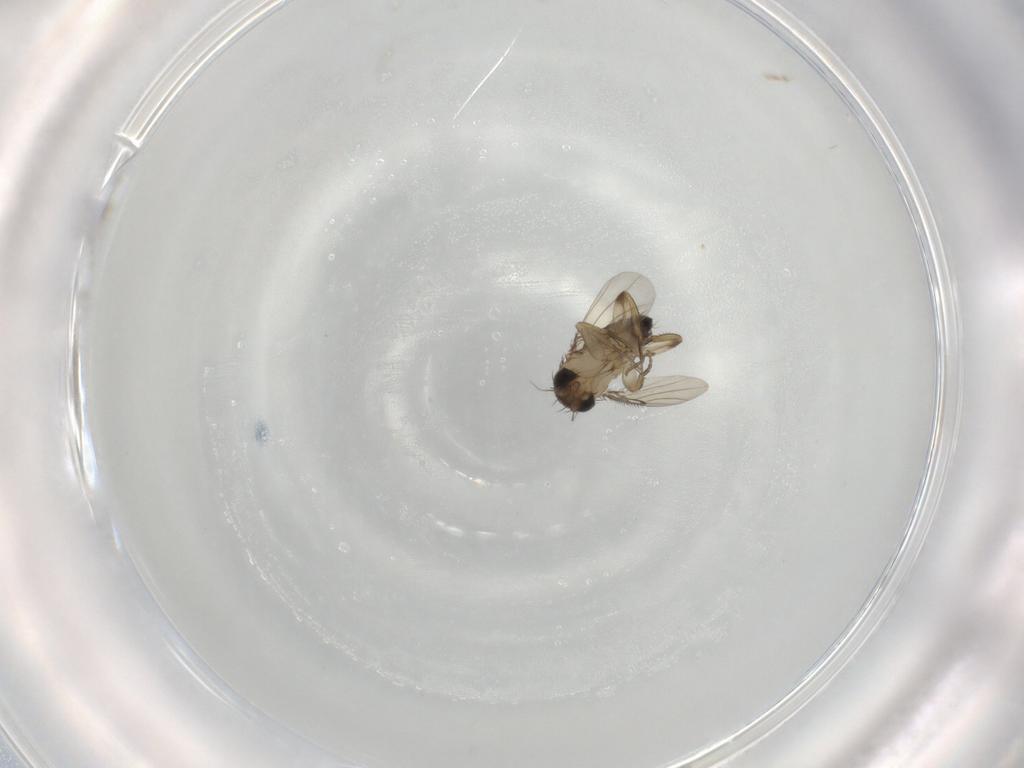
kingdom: Animalia
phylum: Arthropoda
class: Insecta
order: Diptera
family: Phoridae
